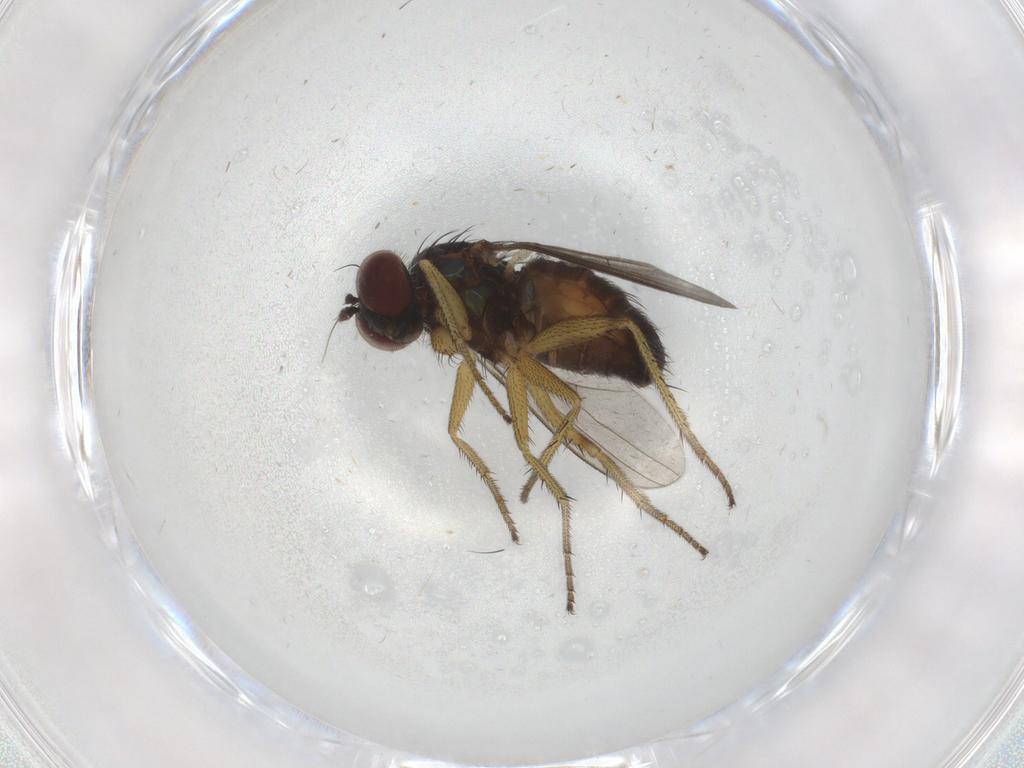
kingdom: Animalia
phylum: Arthropoda
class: Insecta
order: Diptera
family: Dolichopodidae
